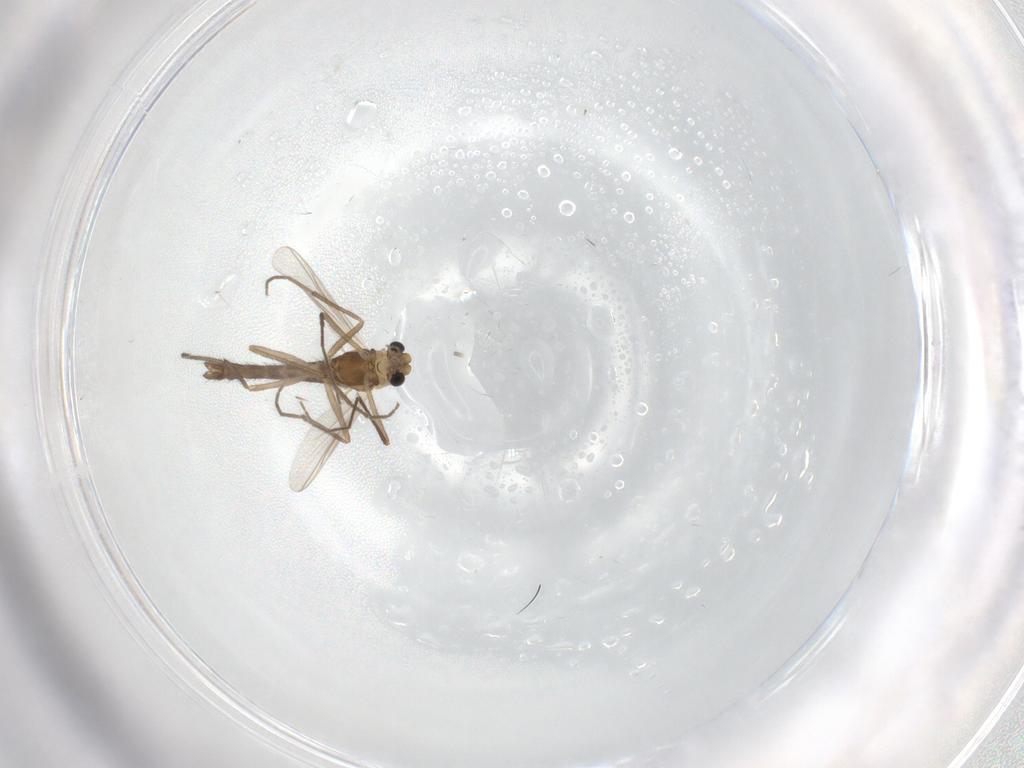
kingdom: Animalia
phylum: Arthropoda
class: Insecta
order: Diptera
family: Chironomidae
